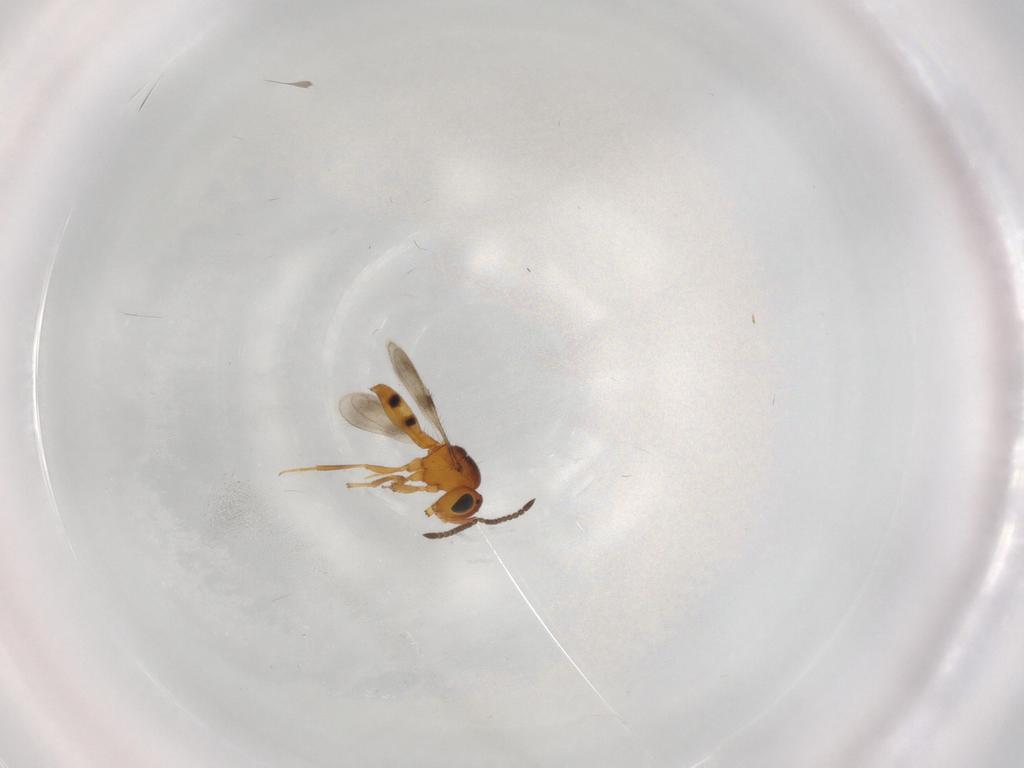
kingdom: Animalia
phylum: Arthropoda
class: Insecta
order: Hymenoptera
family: Scelionidae
